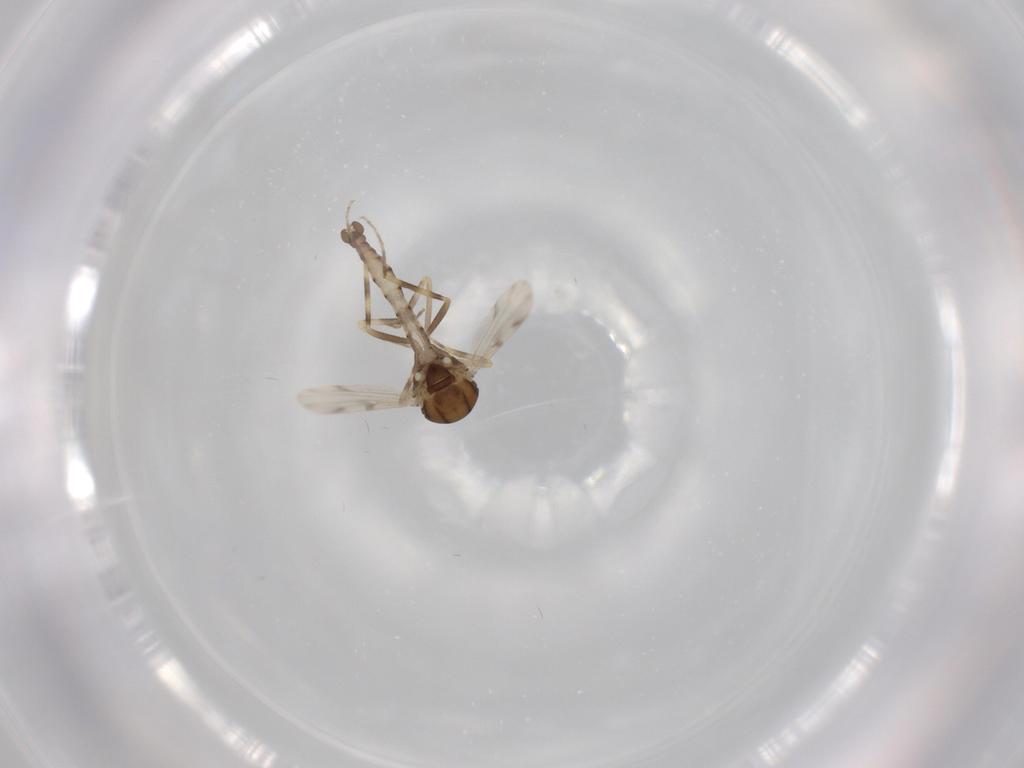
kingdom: Animalia
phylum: Arthropoda
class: Insecta
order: Diptera
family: Ceratopogonidae
